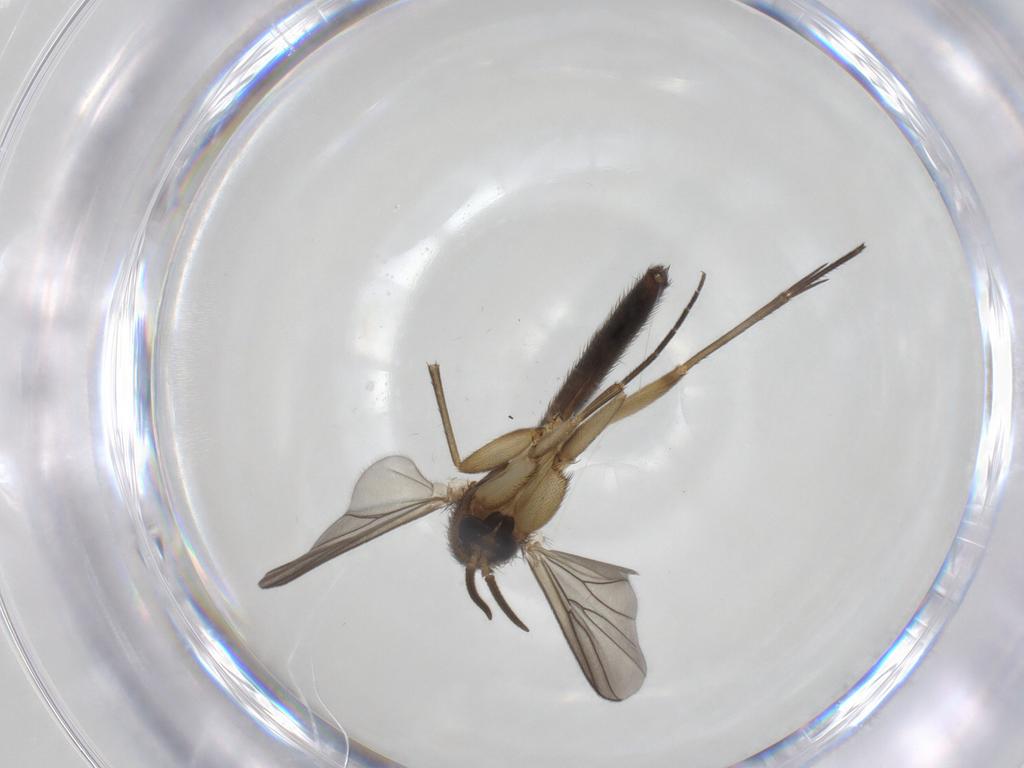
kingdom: Animalia
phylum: Arthropoda
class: Insecta
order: Diptera
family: Mycetophilidae
